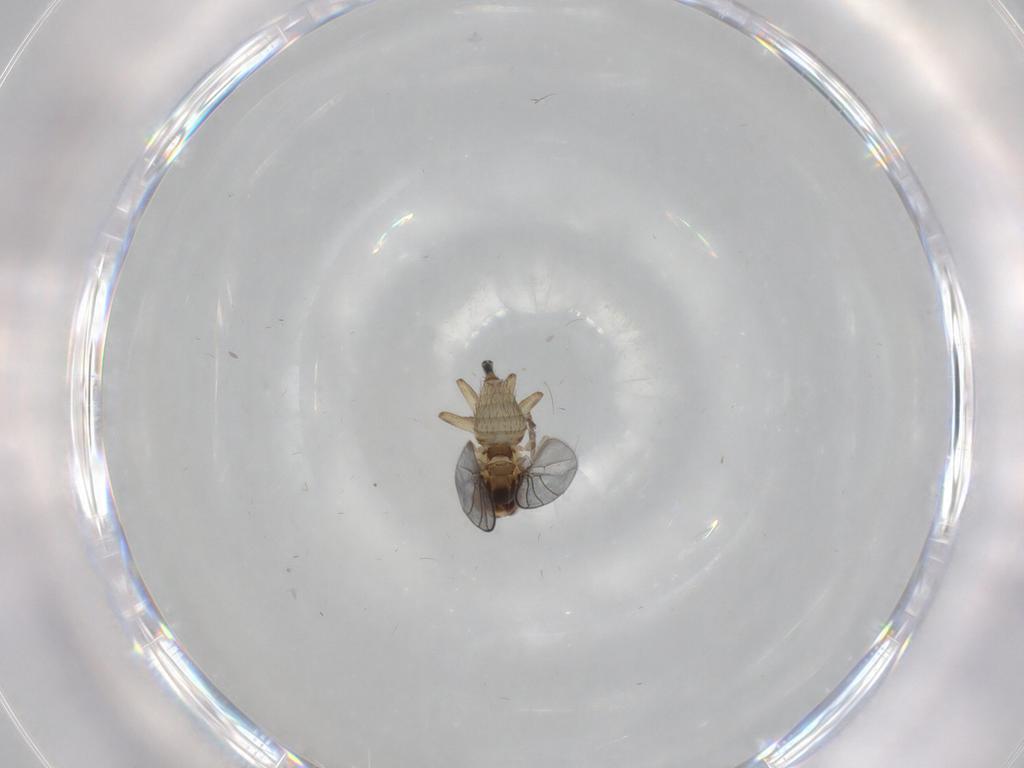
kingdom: Animalia
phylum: Arthropoda
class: Insecta
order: Diptera
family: Agromyzidae
